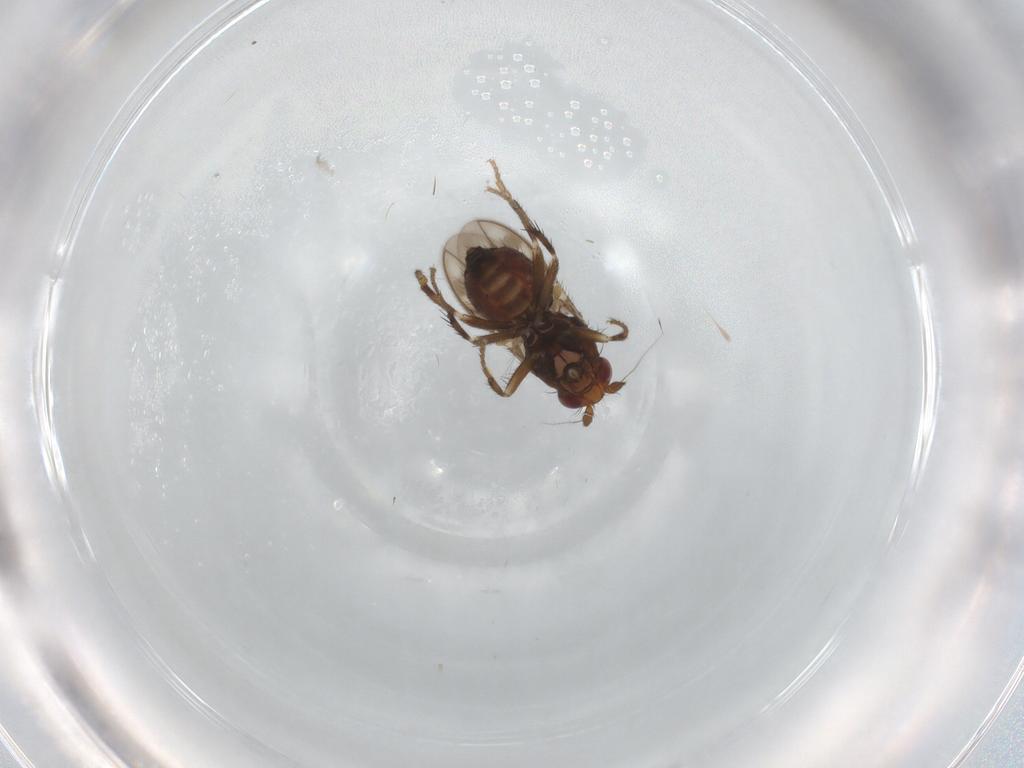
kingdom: Animalia
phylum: Arthropoda
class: Insecta
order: Diptera
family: Sphaeroceridae
